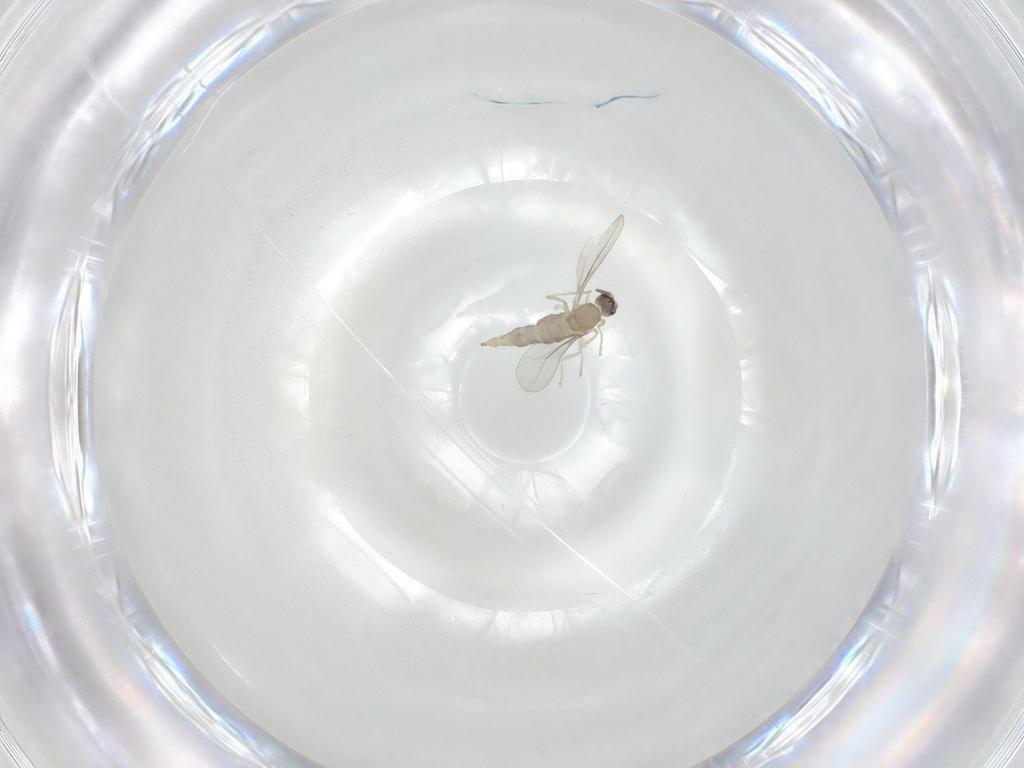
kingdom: Animalia
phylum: Arthropoda
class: Insecta
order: Diptera
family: Cecidomyiidae
